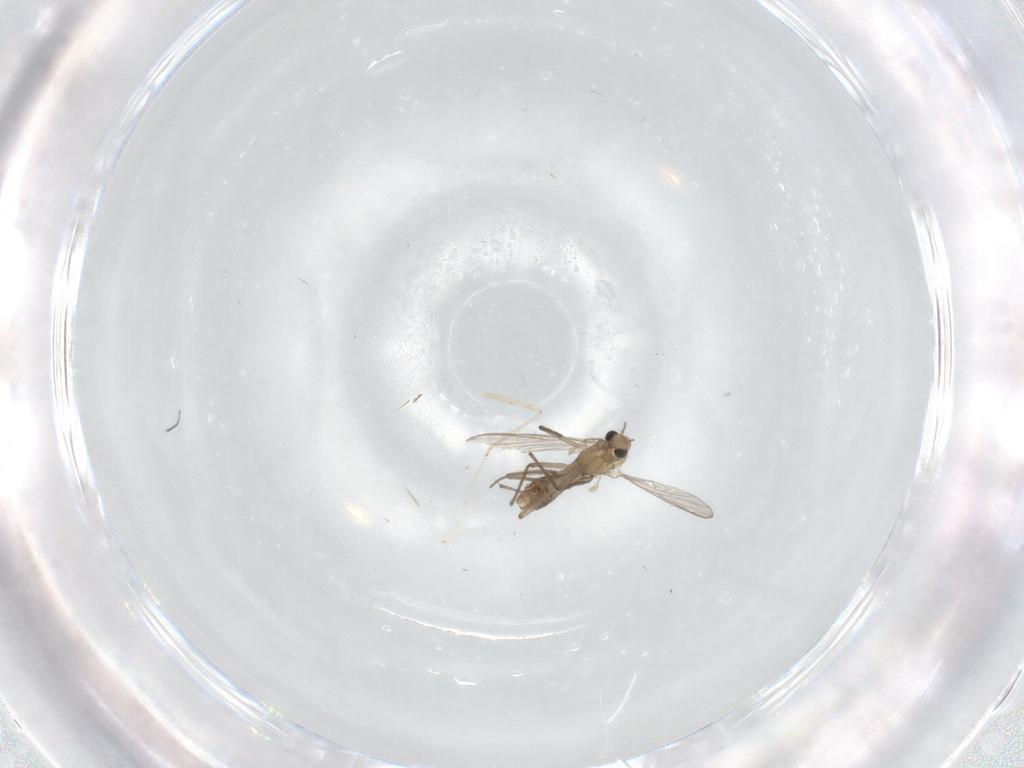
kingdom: Animalia
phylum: Arthropoda
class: Insecta
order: Diptera
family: Chironomidae
